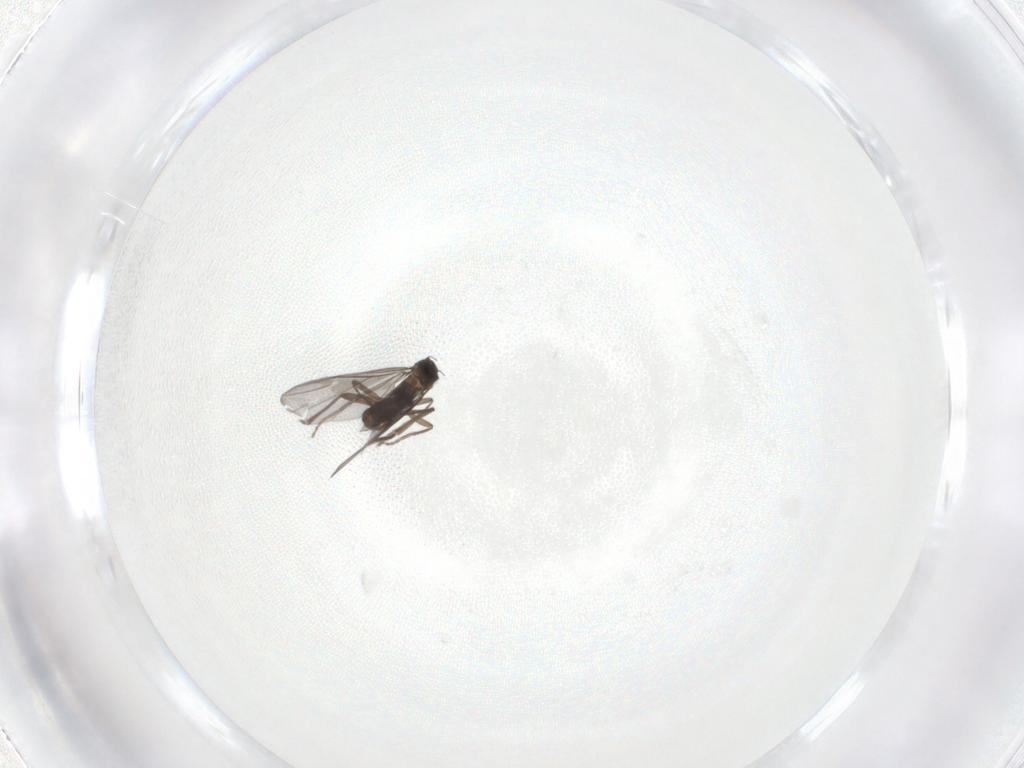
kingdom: Animalia
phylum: Arthropoda
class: Insecta
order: Diptera
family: Phoridae
